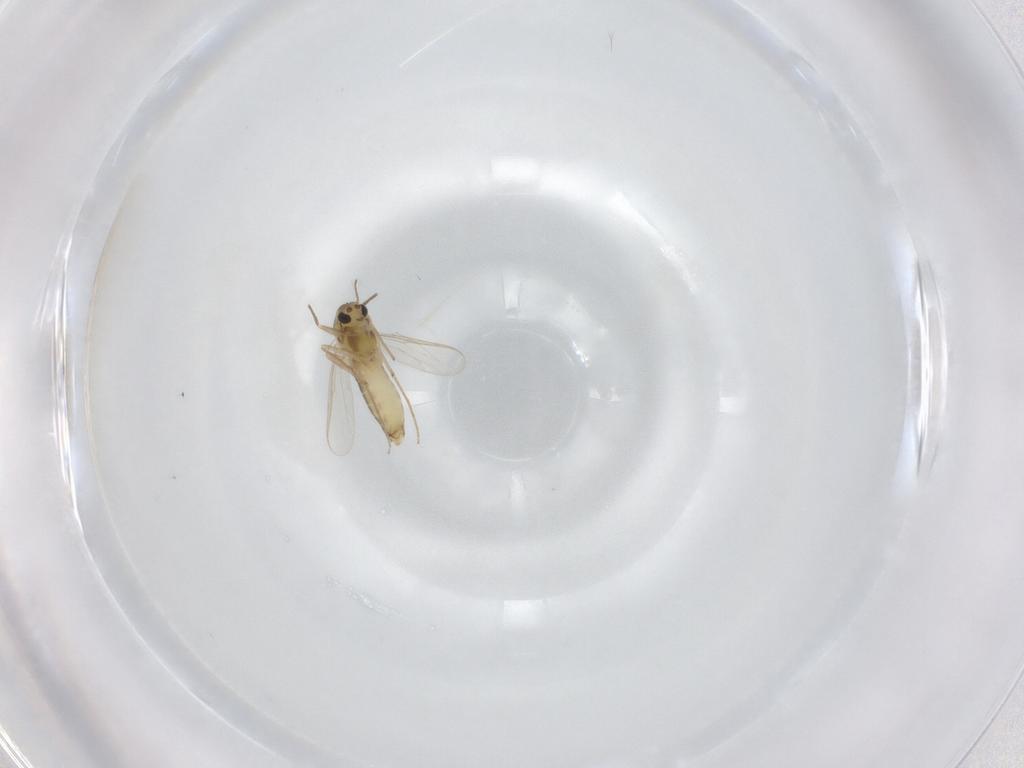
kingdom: Animalia
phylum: Arthropoda
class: Insecta
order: Diptera
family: Chironomidae
